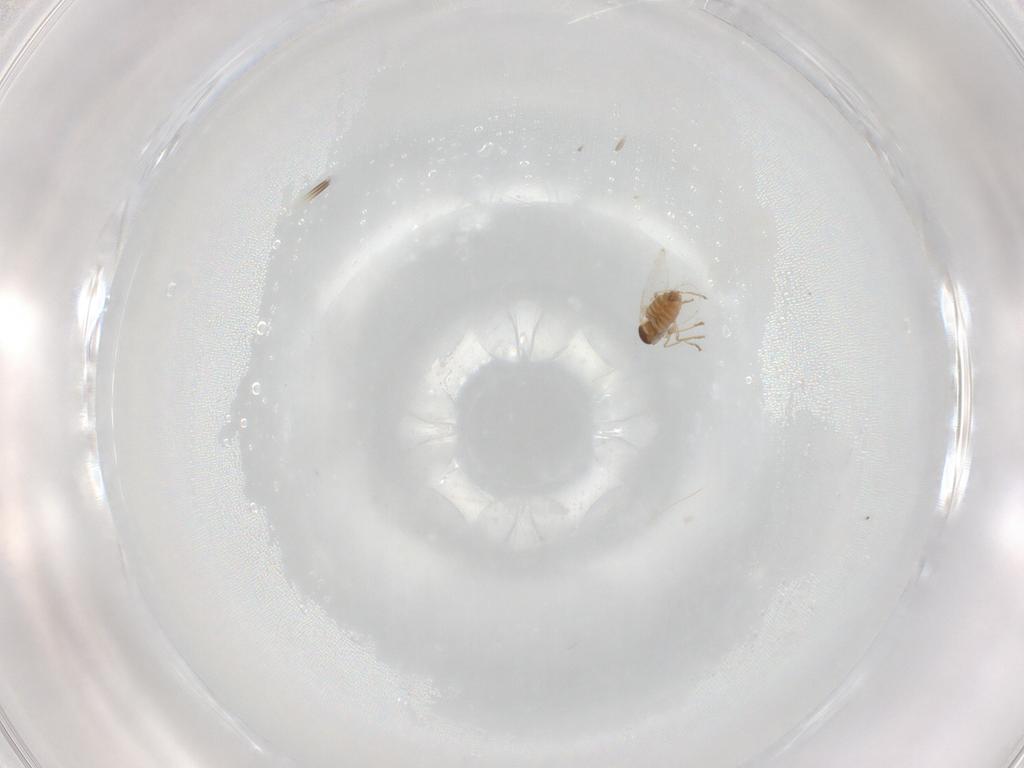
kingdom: Animalia
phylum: Arthropoda
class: Insecta
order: Diptera
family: Cecidomyiidae
